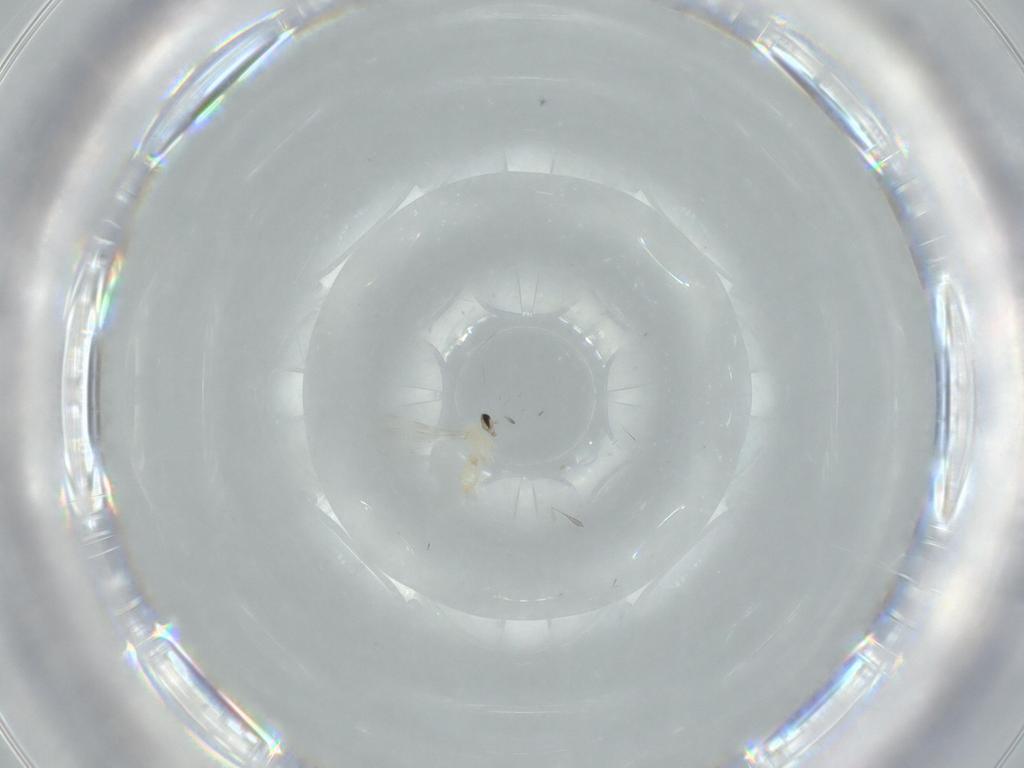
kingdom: Animalia
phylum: Arthropoda
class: Insecta
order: Diptera
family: Cecidomyiidae
